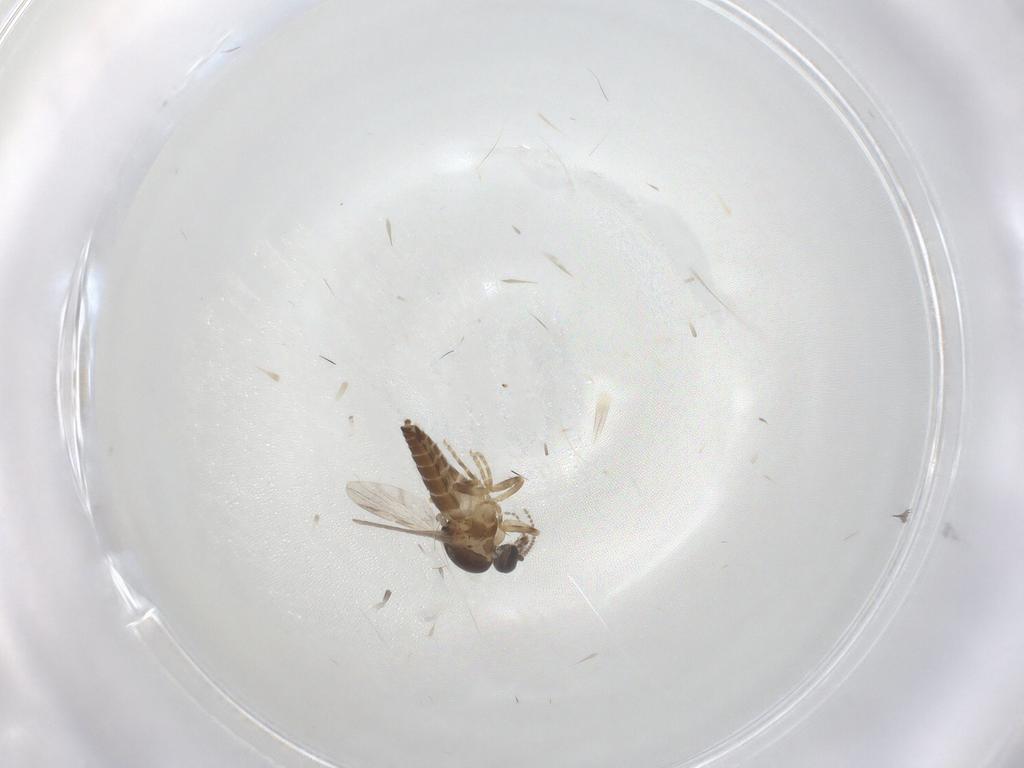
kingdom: Animalia
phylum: Arthropoda
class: Insecta
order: Diptera
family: Ceratopogonidae
